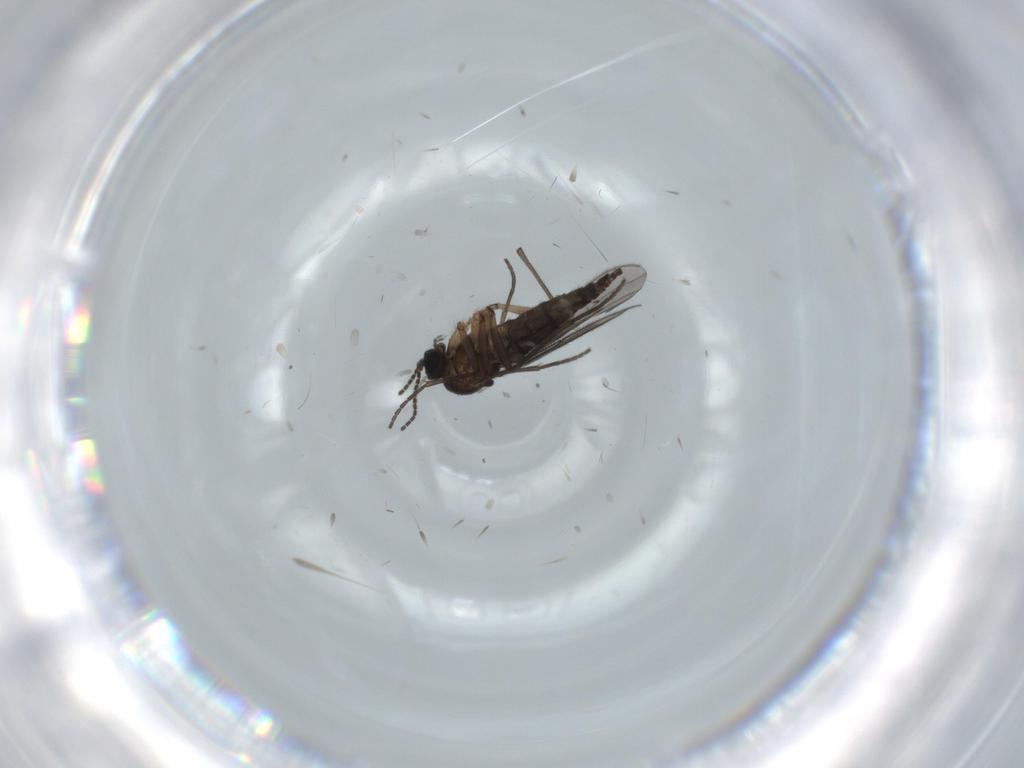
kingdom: Animalia
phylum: Arthropoda
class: Insecta
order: Diptera
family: Sciaridae
